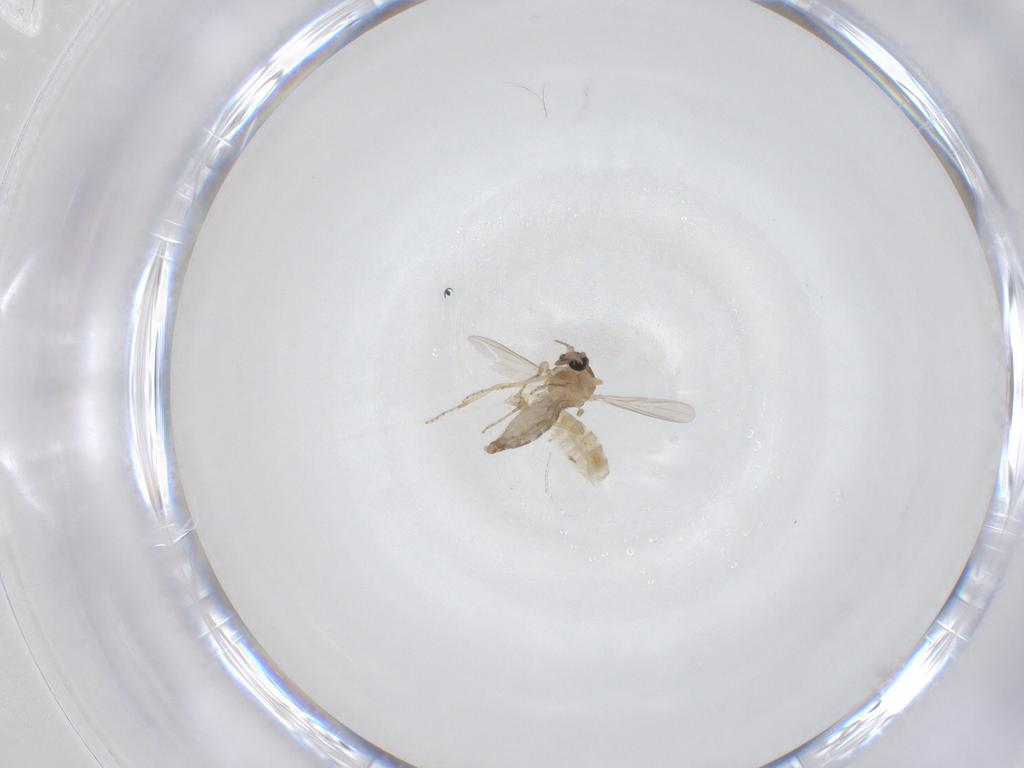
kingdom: Animalia
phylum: Arthropoda
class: Insecta
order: Diptera
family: Ceratopogonidae
